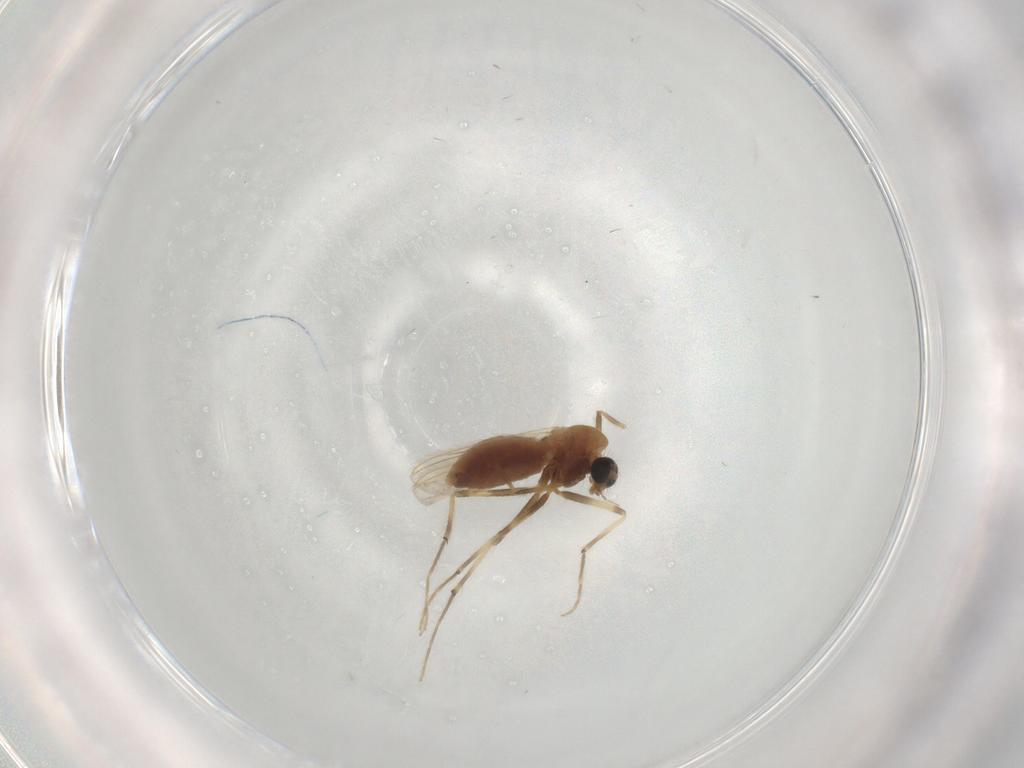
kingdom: Animalia
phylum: Arthropoda
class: Insecta
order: Diptera
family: Chironomidae
